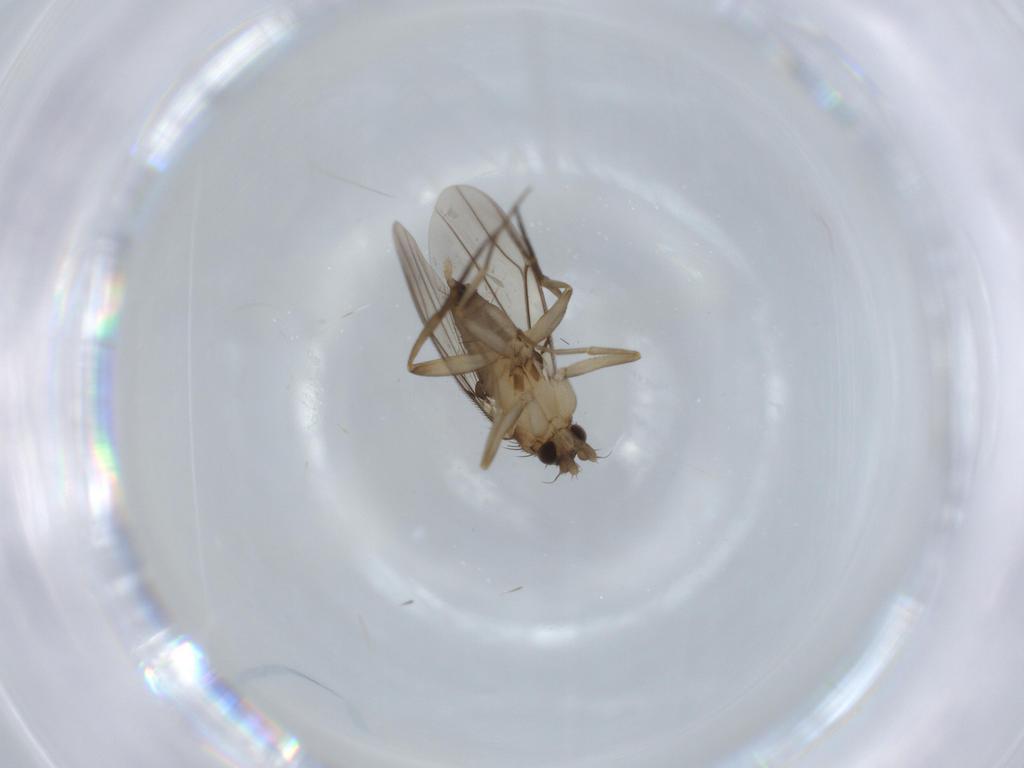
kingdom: Animalia
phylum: Arthropoda
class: Insecta
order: Diptera
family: Phoridae
